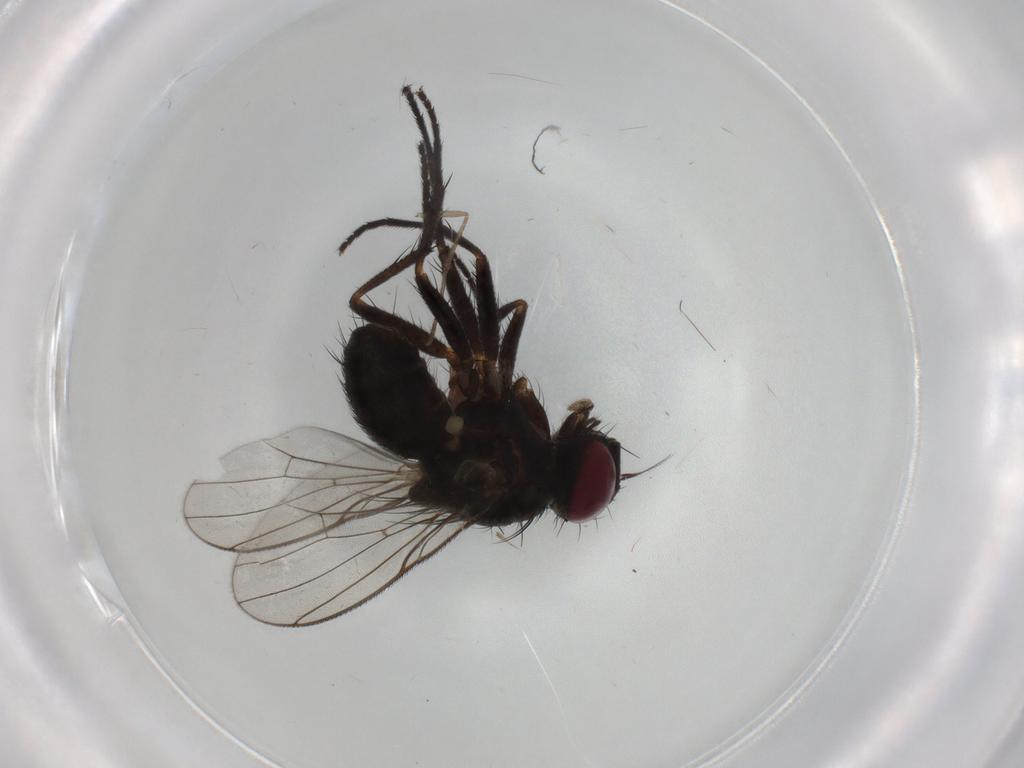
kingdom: Animalia
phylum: Arthropoda
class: Insecta
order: Diptera
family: Muscidae
